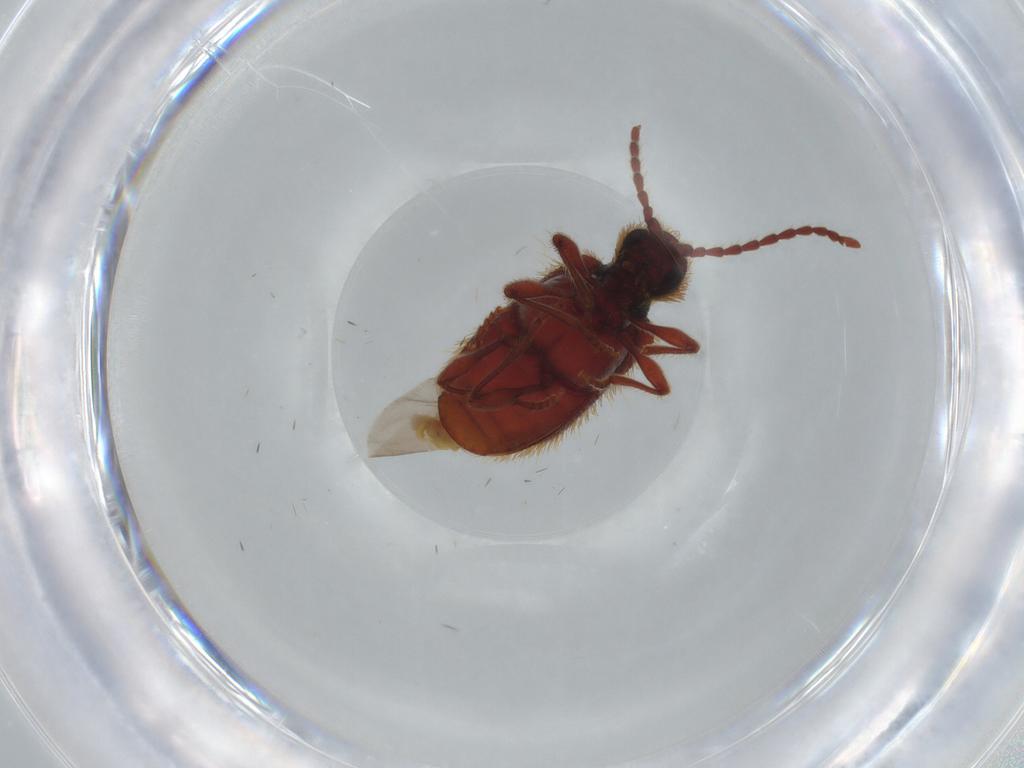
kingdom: Animalia
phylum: Arthropoda
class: Insecta
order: Coleoptera
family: Ptinidae
